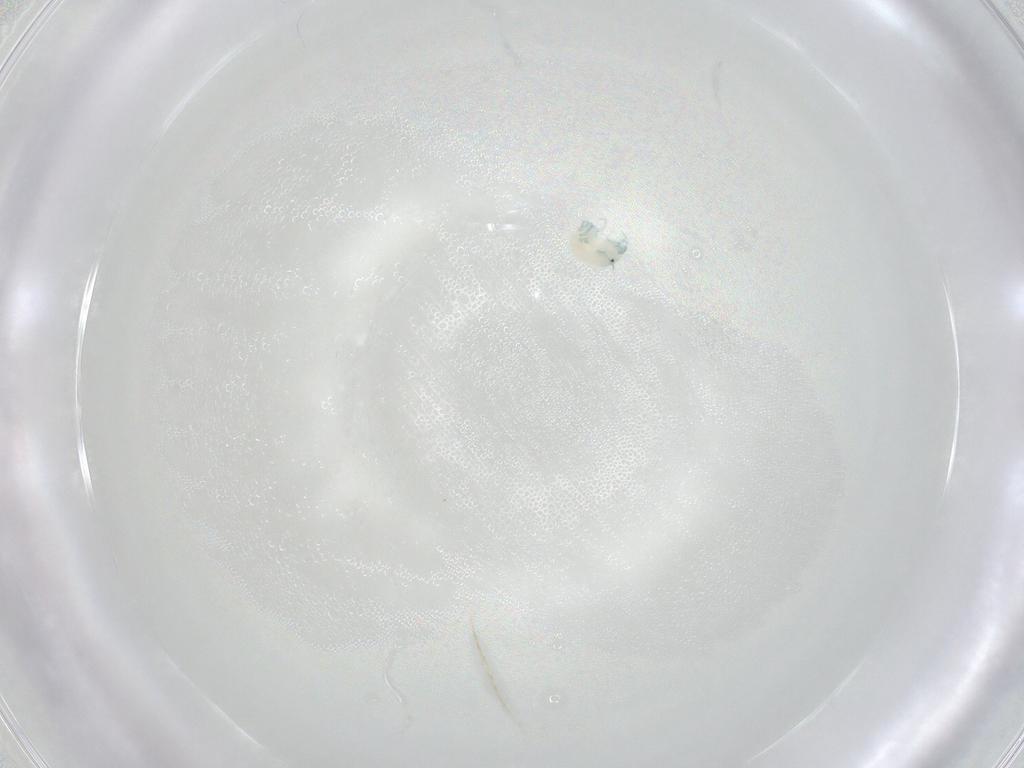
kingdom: Animalia
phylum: Arthropoda
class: Arachnida
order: Trombidiformes
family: Arrenuridae
